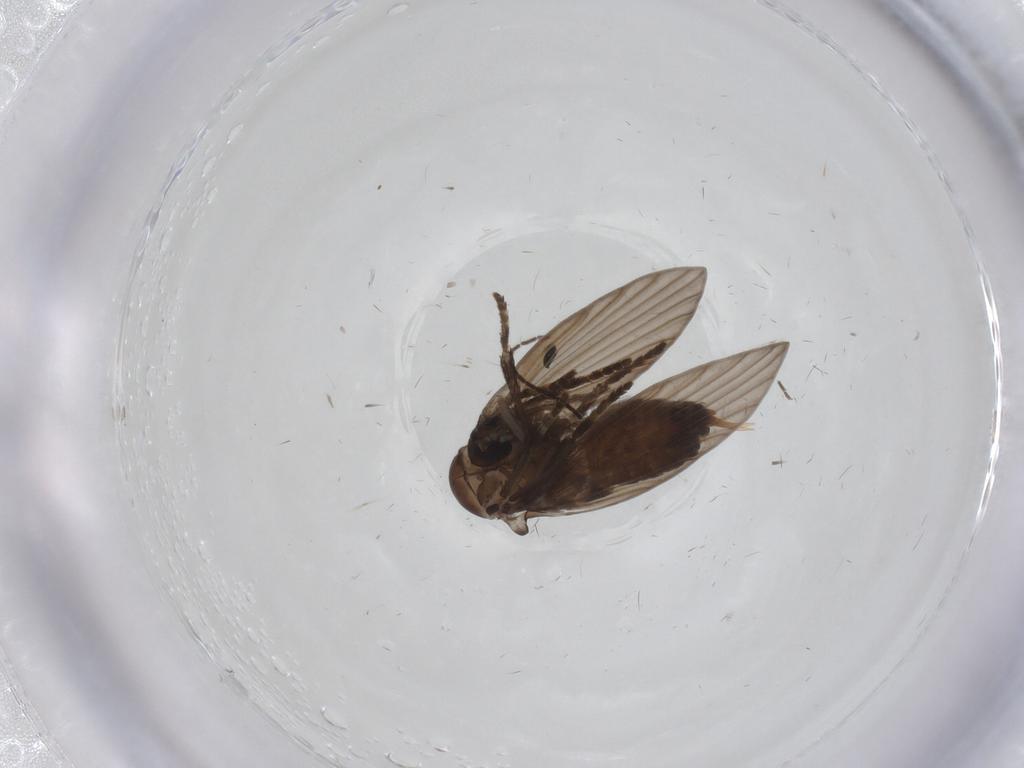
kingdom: Animalia
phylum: Arthropoda
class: Insecta
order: Diptera
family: Psychodidae
